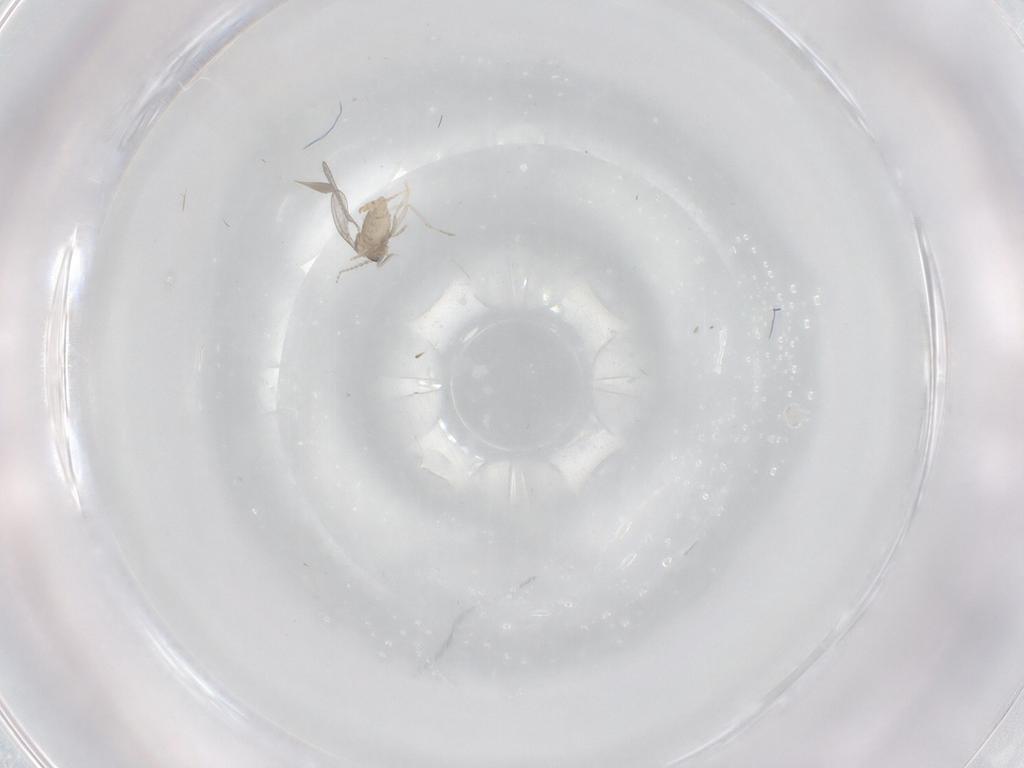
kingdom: Animalia
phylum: Arthropoda
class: Insecta
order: Diptera
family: Cecidomyiidae
